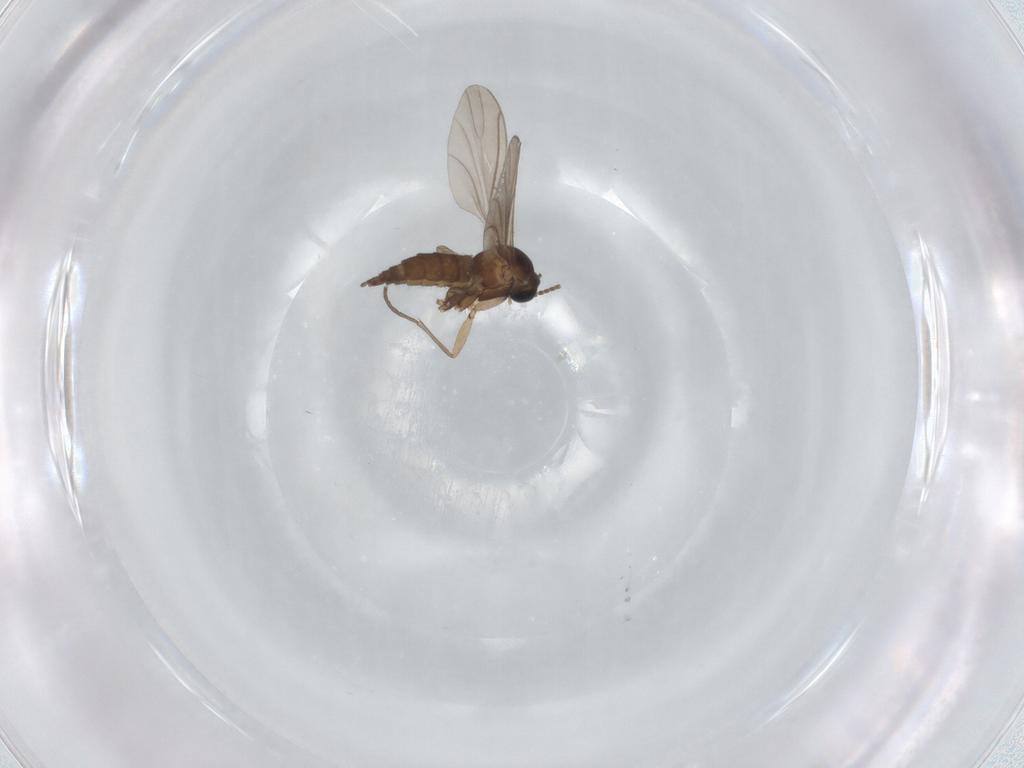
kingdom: Animalia
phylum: Arthropoda
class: Insecta
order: Diptera
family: Sciaridae
